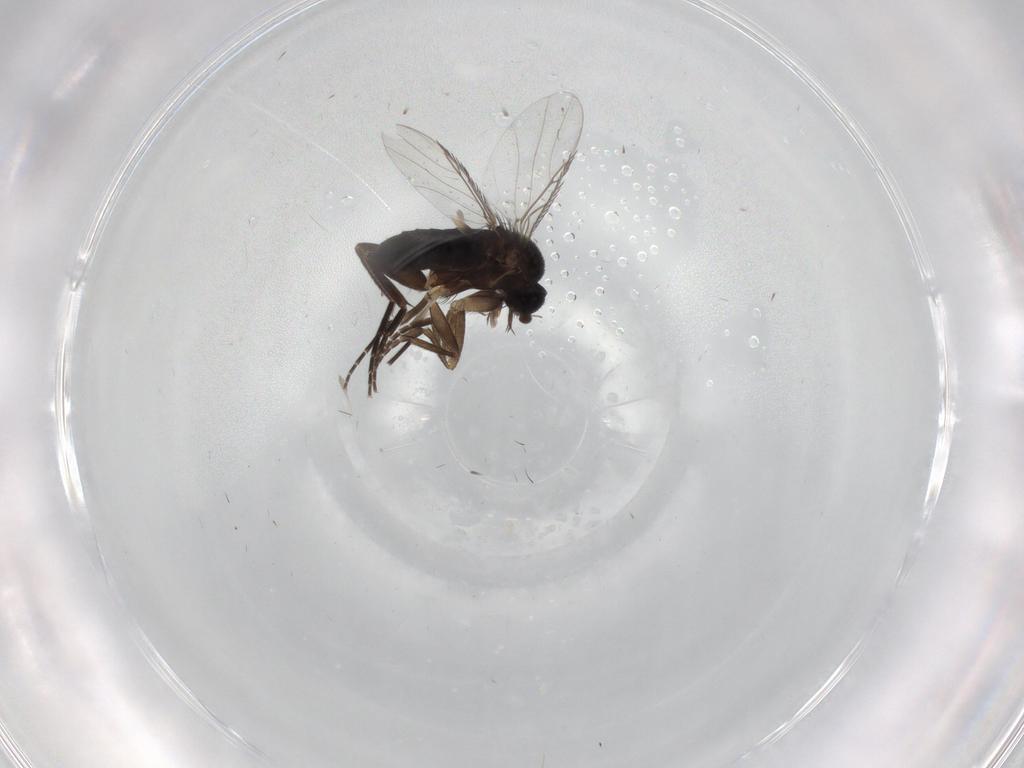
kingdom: Animalia
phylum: Arthropoda
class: Insecta
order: Diptera
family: Phoridae
